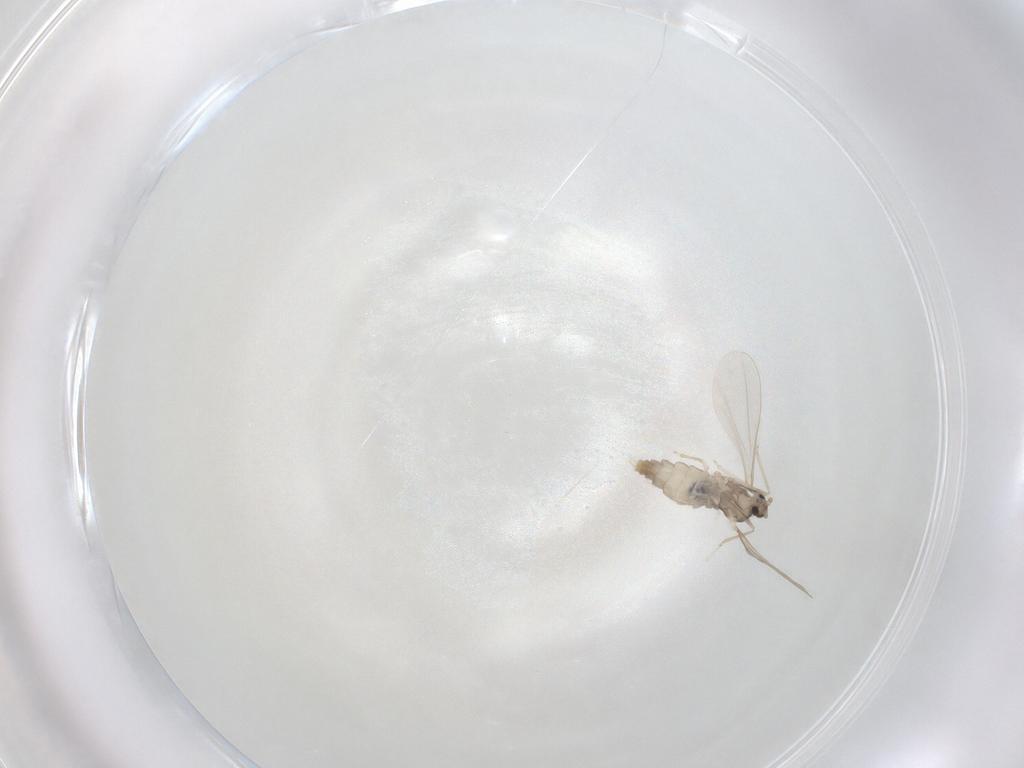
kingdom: Animalia
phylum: Arthropoda
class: Insecta
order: Diptera
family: Cecidomyiidae
